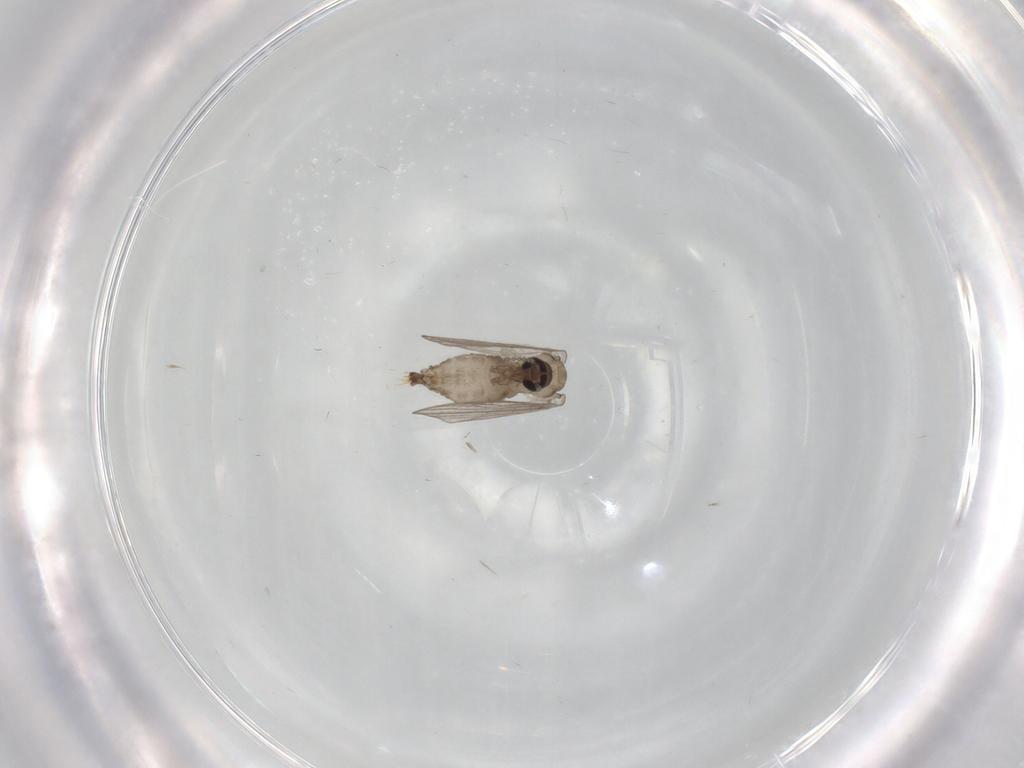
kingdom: Animalia
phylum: Arthropoda
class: Insecta
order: Diptera
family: Psychodidae
